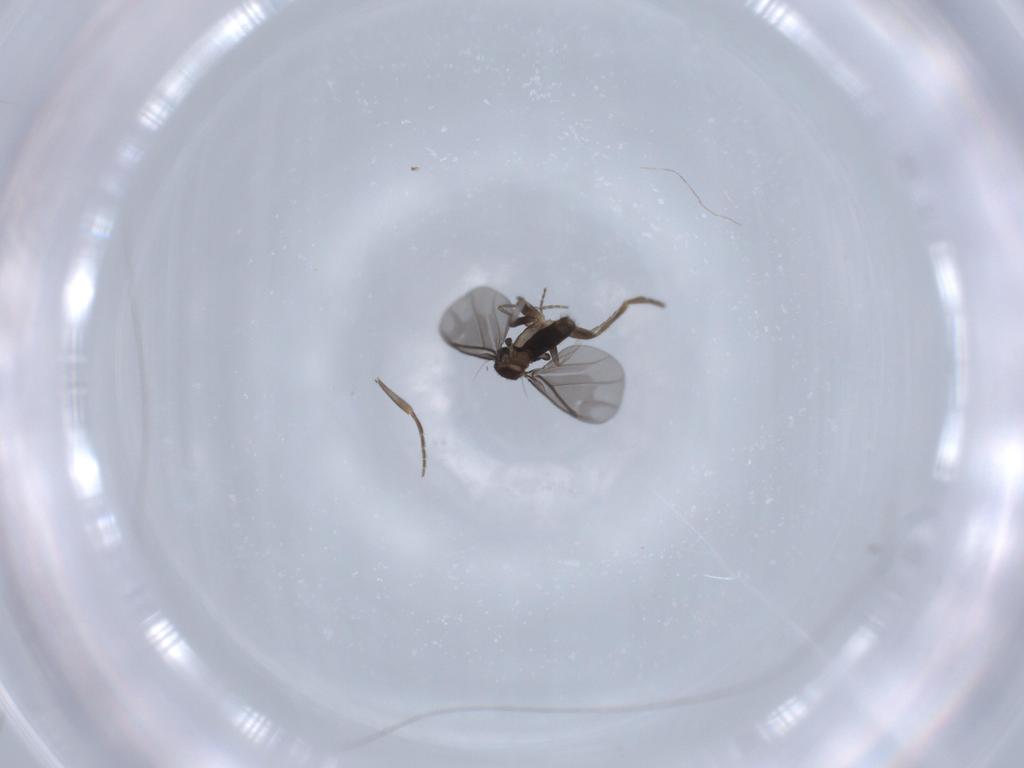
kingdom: Animalia
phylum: Arthropoda
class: Insecta
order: Diptera
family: Phoridae
